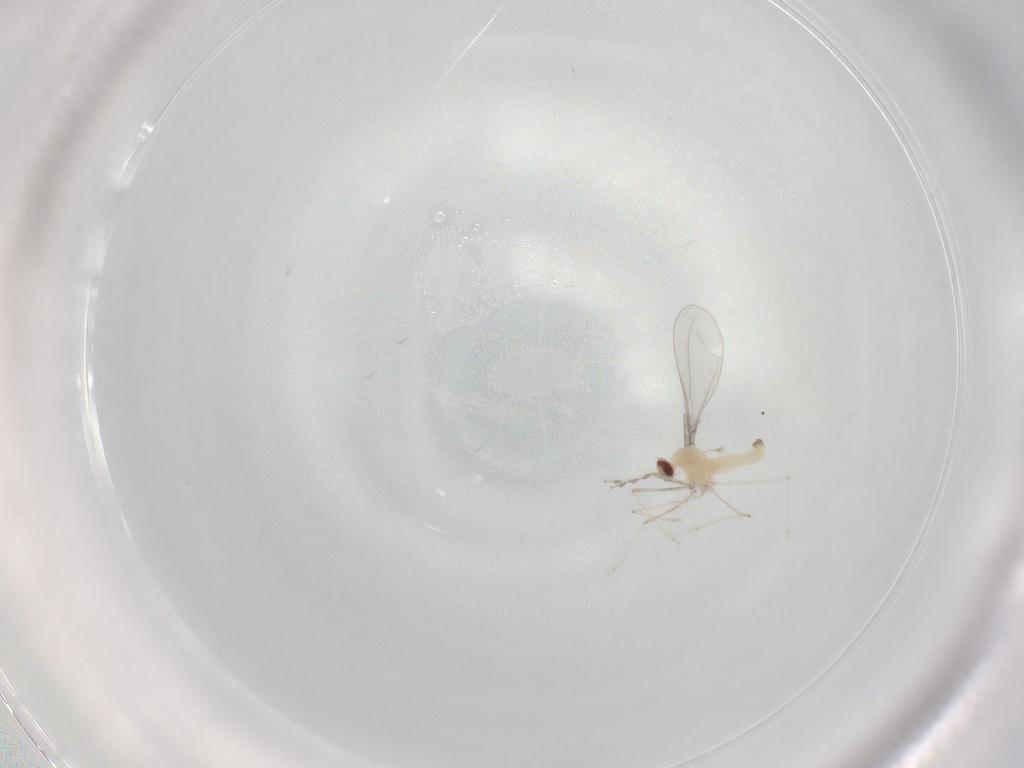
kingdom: Animalia
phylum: Arthropoda
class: Insecta
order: Diptera
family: Cecidomyiidae
